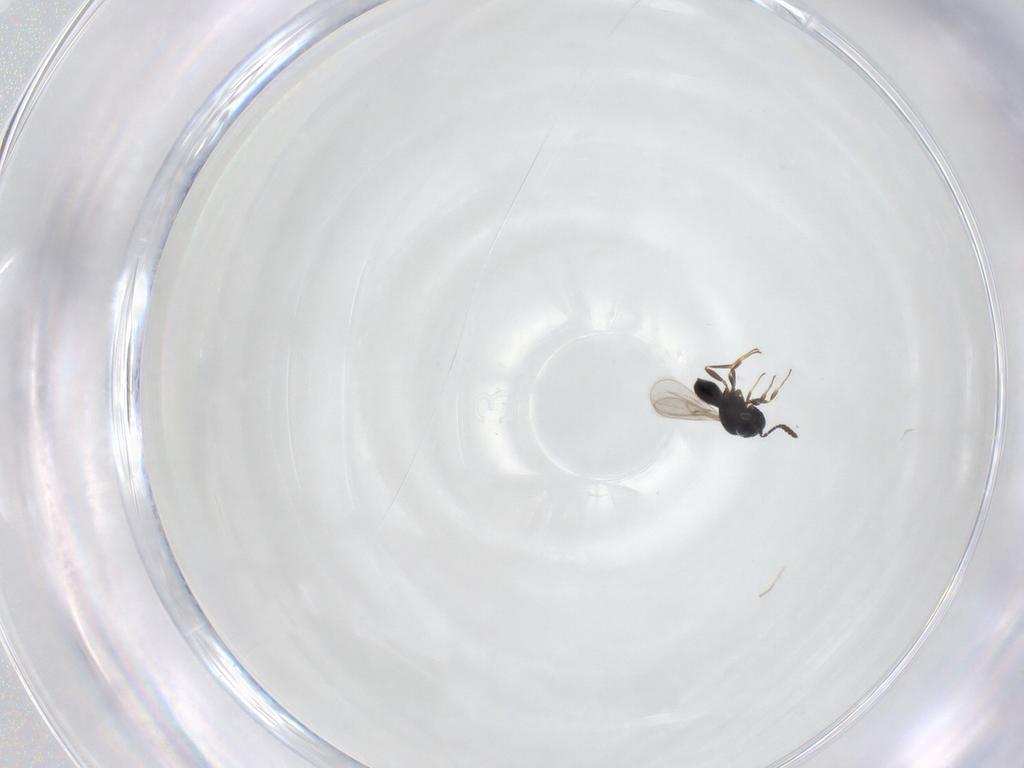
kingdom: Animalia
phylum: Arthropoda
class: Insecta
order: Hymenoptera
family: Scelionidae
